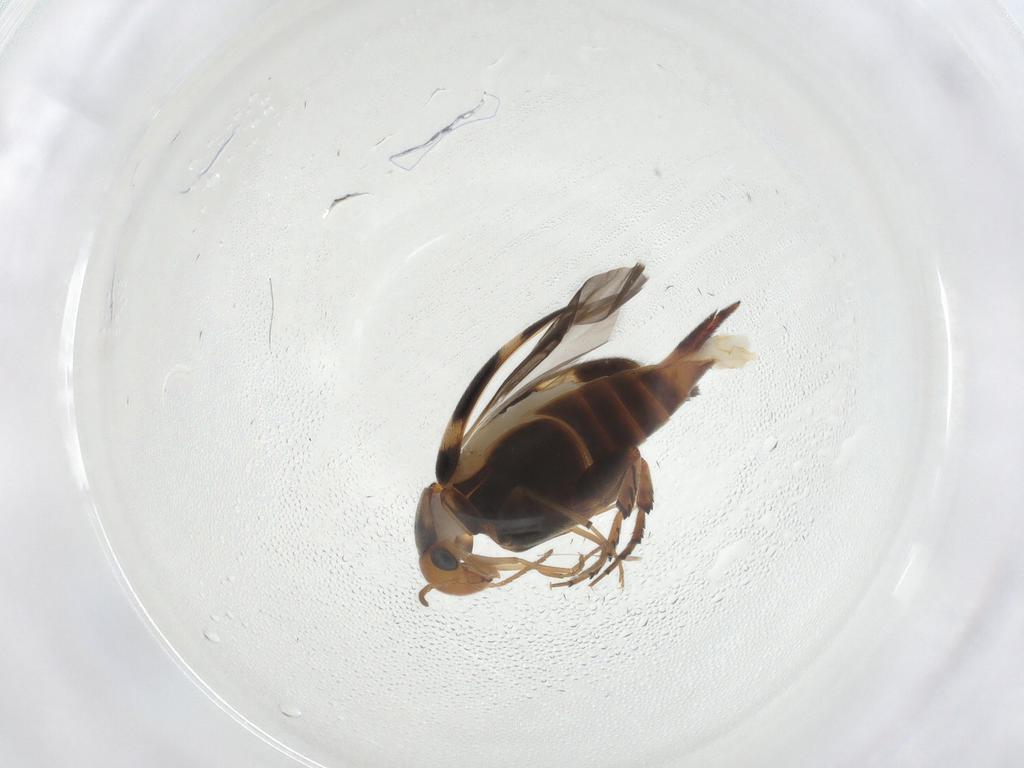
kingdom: Animalia
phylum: Arthropoda
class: Insecta
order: Coleoptera
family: Mordellidae
